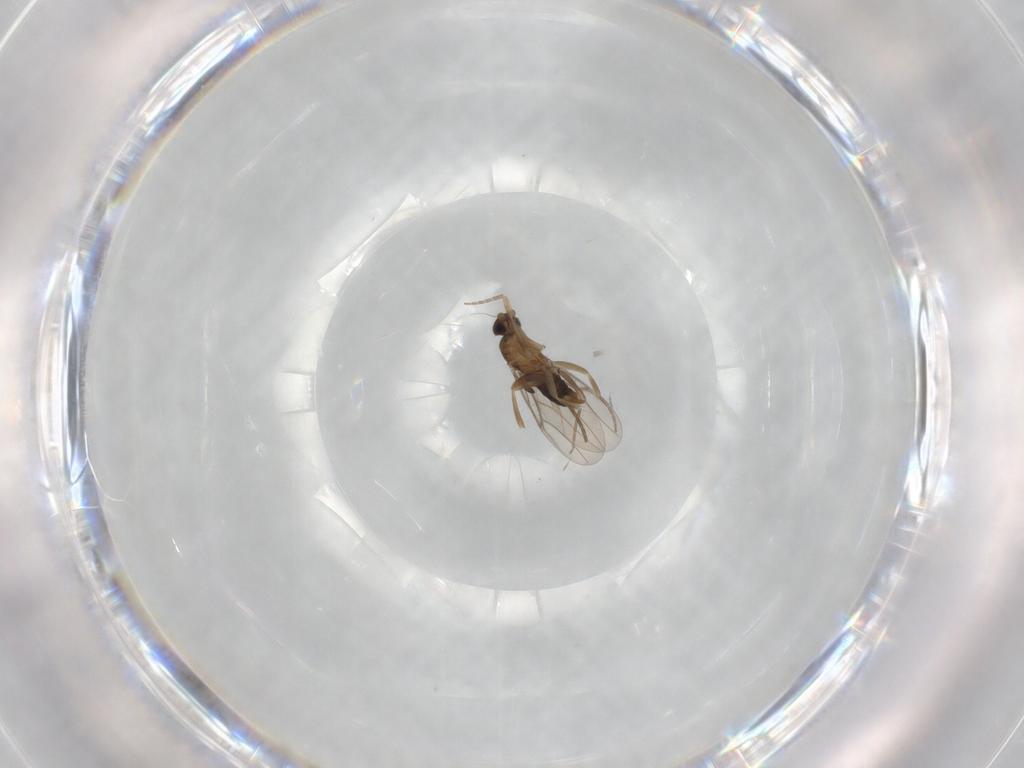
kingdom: Animalia
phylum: Arthropoda
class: Insecta
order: Diptera
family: Phoridae
